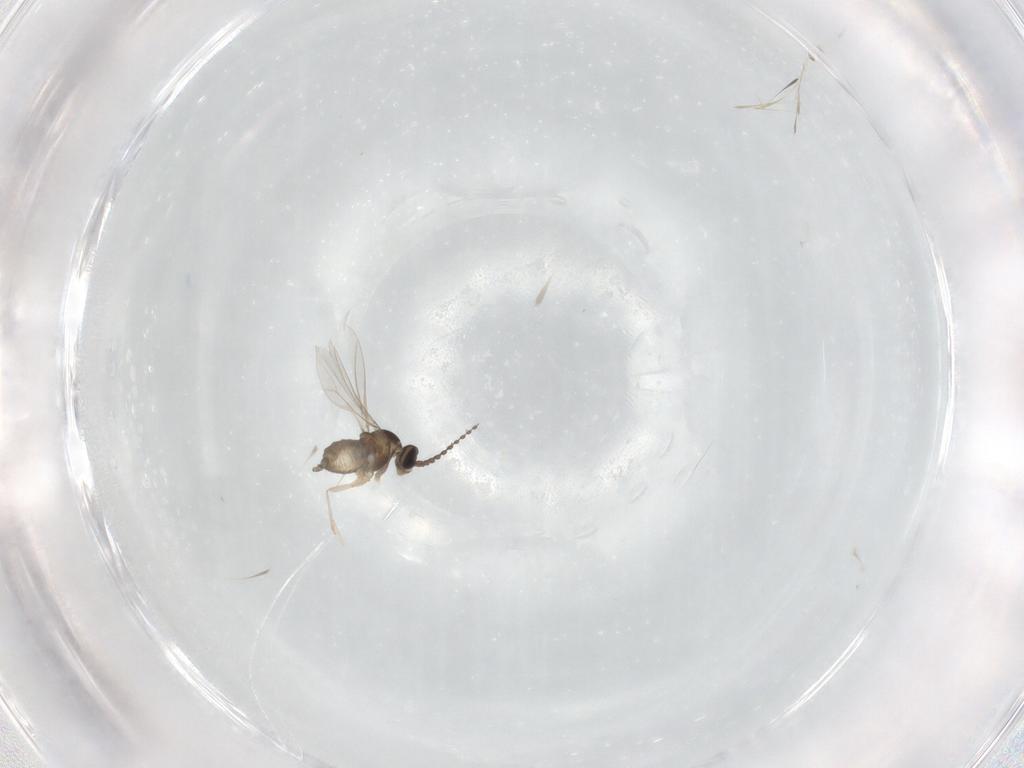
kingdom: Animalia
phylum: Arthropoda
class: Insecta
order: Diptera
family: Cecidomyiidae
